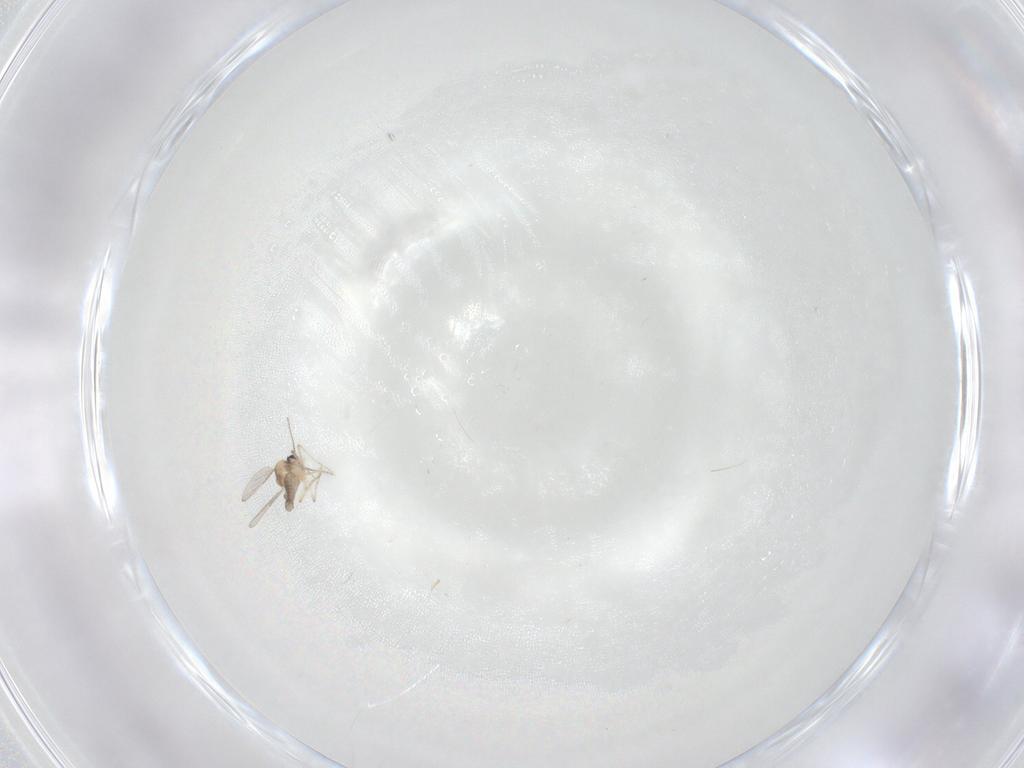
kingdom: Animalia
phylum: Arthropoda
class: Insecta
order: Diptera
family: Ceratopogonidae
